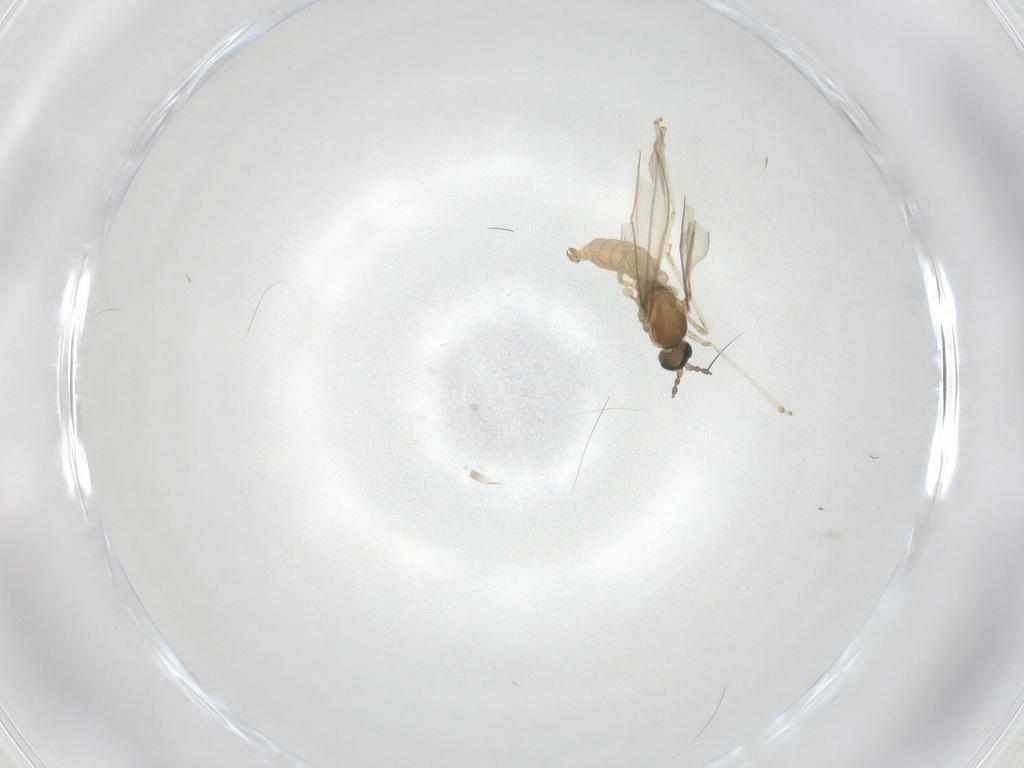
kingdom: Animalia
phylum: Arthropoda
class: Insecta
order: Diptera
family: Cecidomyiidae
